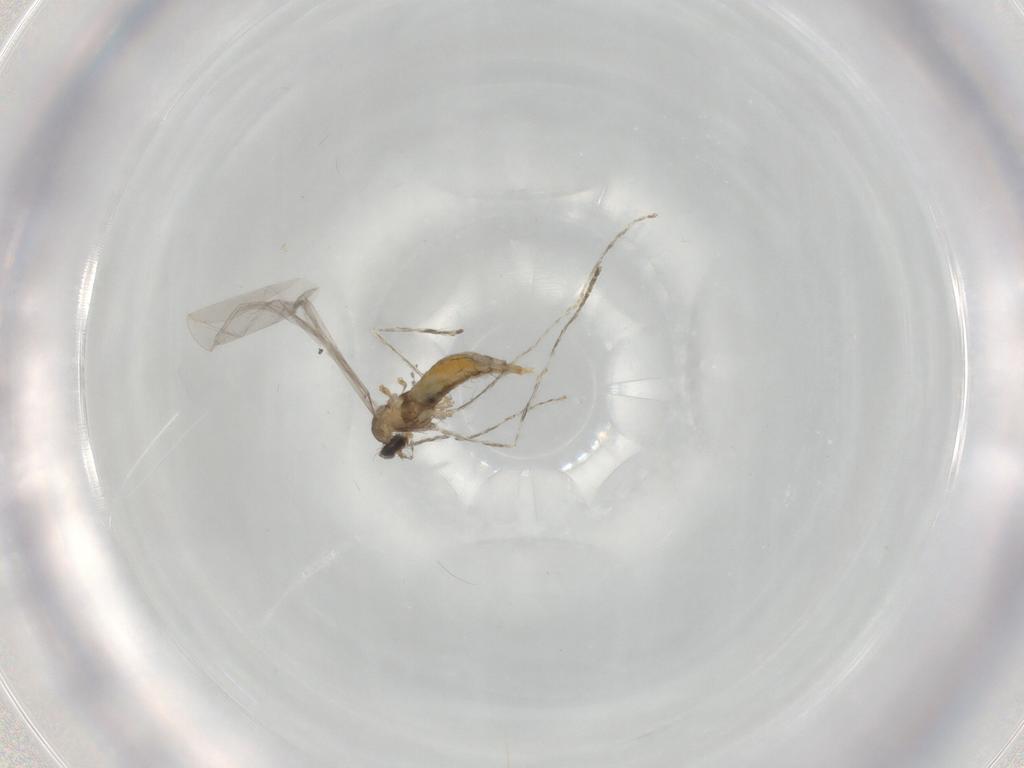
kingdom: Animalia
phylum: Arthropoda
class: Insecta
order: Diptera
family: Cecidomyiidae
